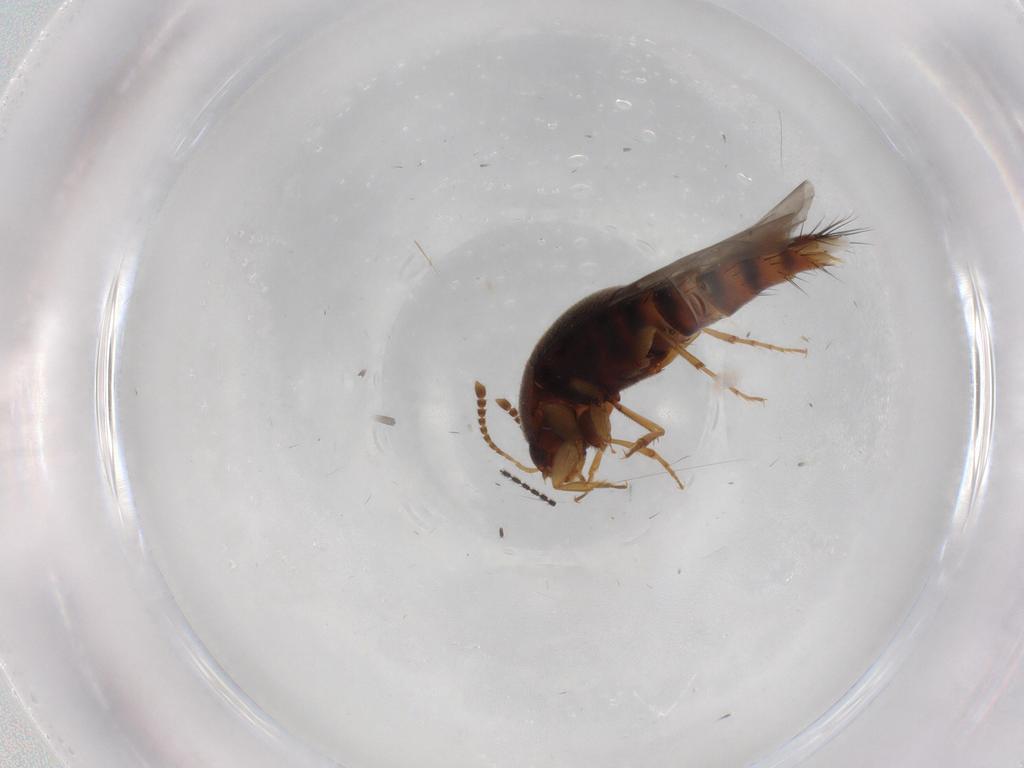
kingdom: Animalia
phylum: Arthropoda
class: Insecta
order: Coleoptera
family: Staphylinidae
